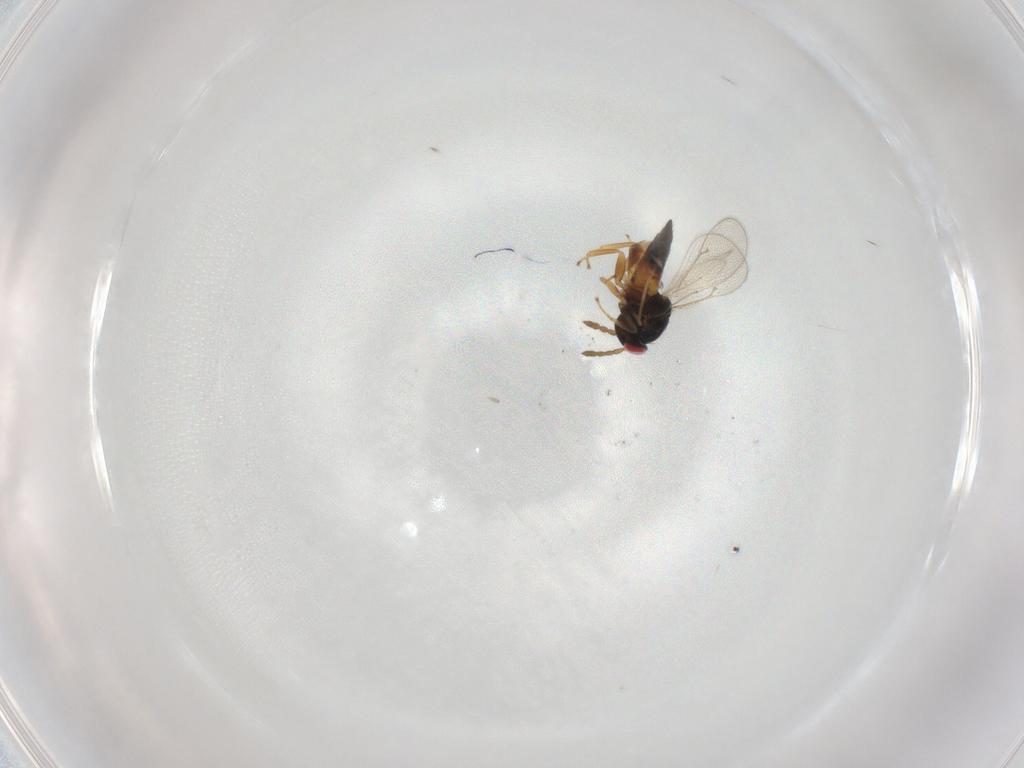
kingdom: Animalia
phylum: Arthropoda
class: Insecta
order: Hymenoptera
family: Eulophidae
